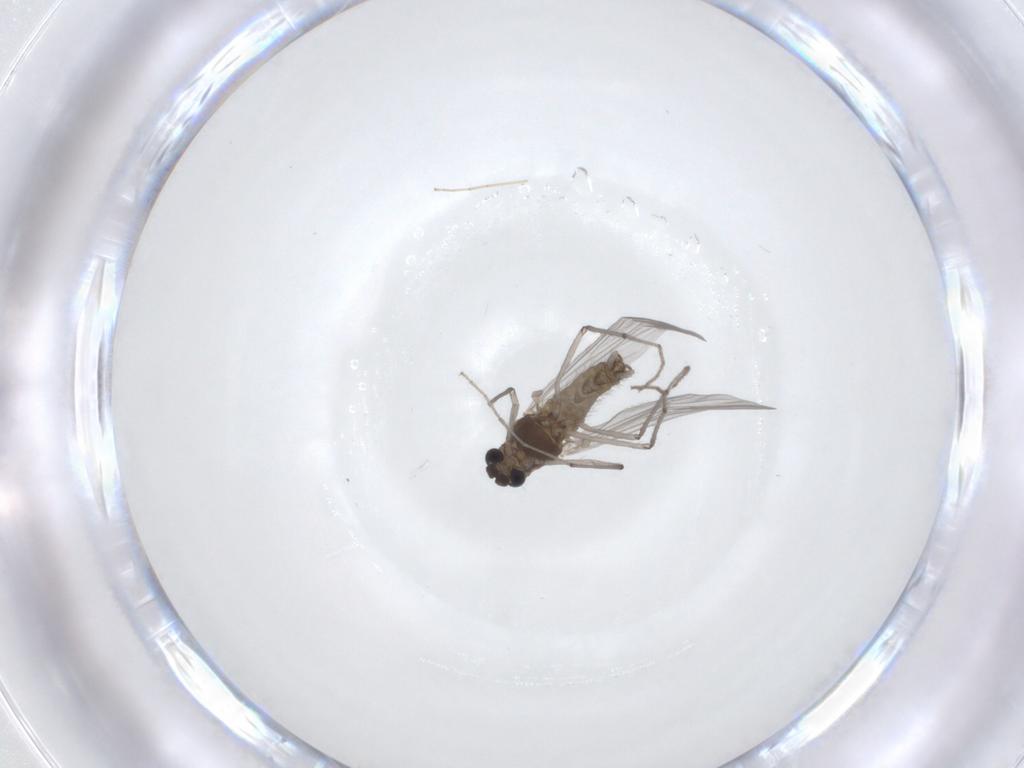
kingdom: Animalia
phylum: Arthropoda
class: Insecta
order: Diptera
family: Chironomidae
